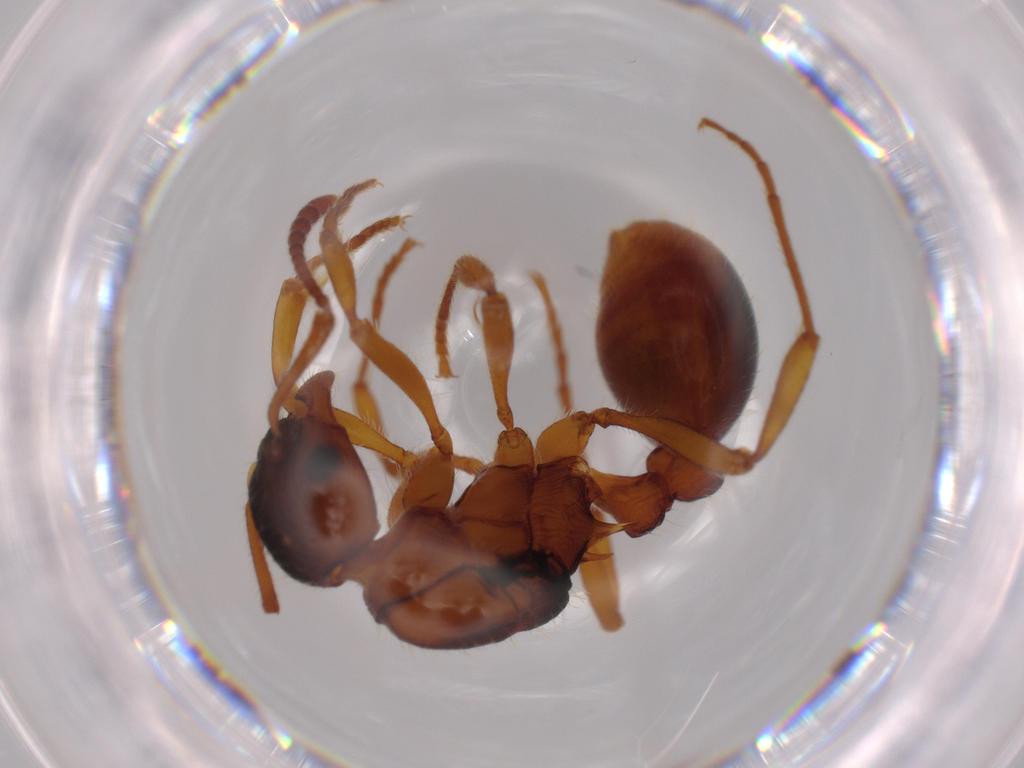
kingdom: Animalia
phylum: Arthropoda
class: Insecta
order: Hymenoptera
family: Formicidae
